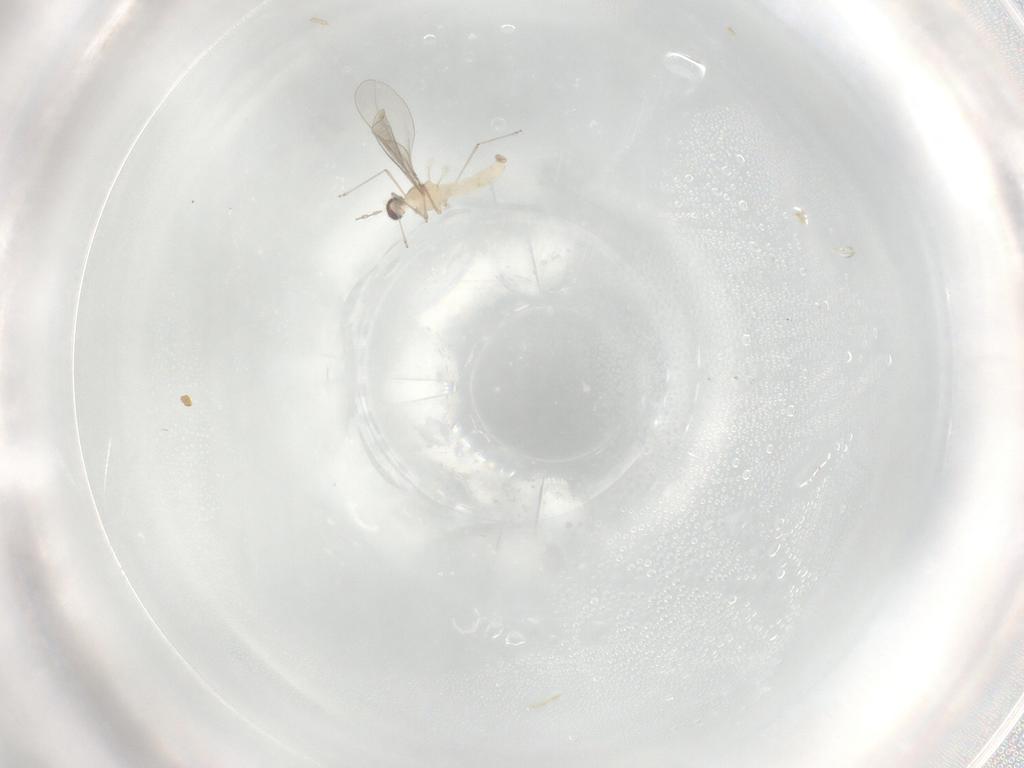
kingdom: Animalia
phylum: Arthropoda
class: Insecta
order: Diptera
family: Cecidomyiidae
